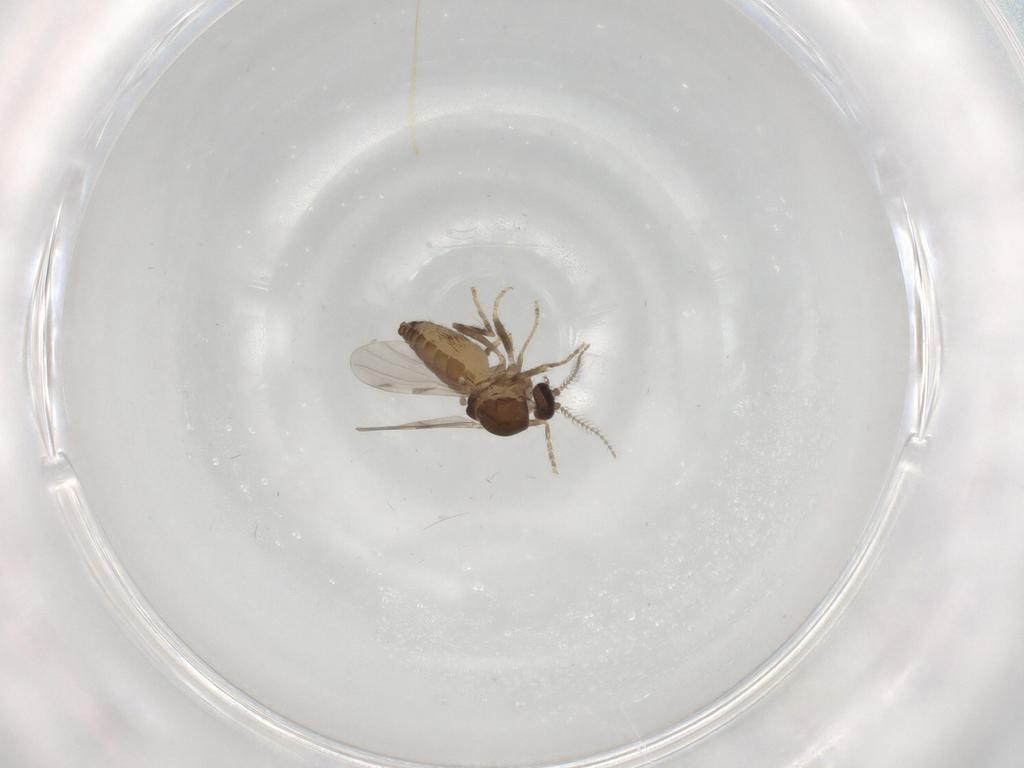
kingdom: Animalia
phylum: Arthropoda
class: Insecta
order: Diptera
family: Ceratopogonidae
